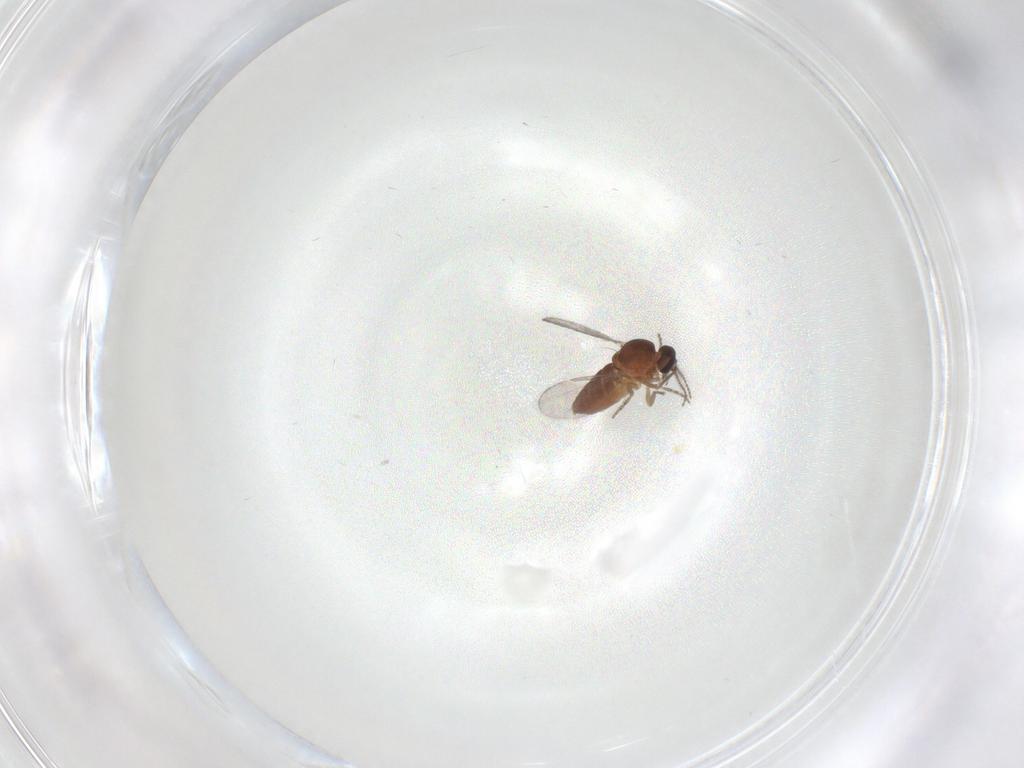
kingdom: Animalia
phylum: Arthropoda
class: Insecta
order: Diptera
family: Ceratopogonidae
